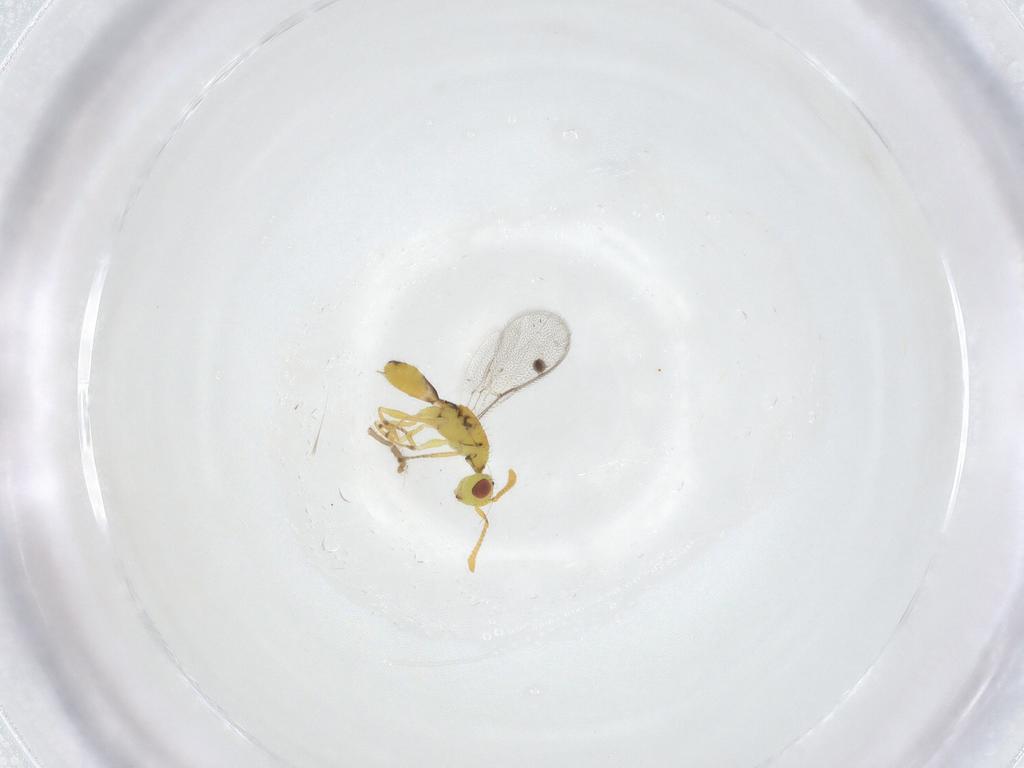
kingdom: Animalia
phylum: Arthropoda
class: Insecta
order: Hymenoptera
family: Megastigmidae
